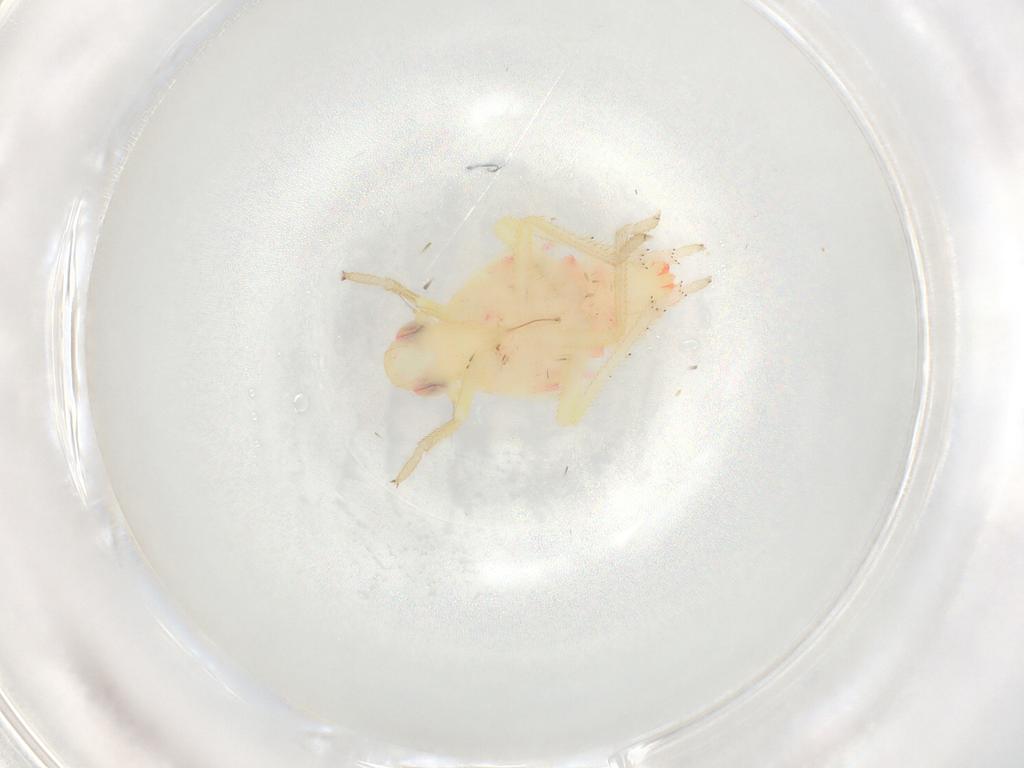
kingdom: Animalia
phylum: Arthropoda
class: Insecta
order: Hemiptera
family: Tropiduchidae
